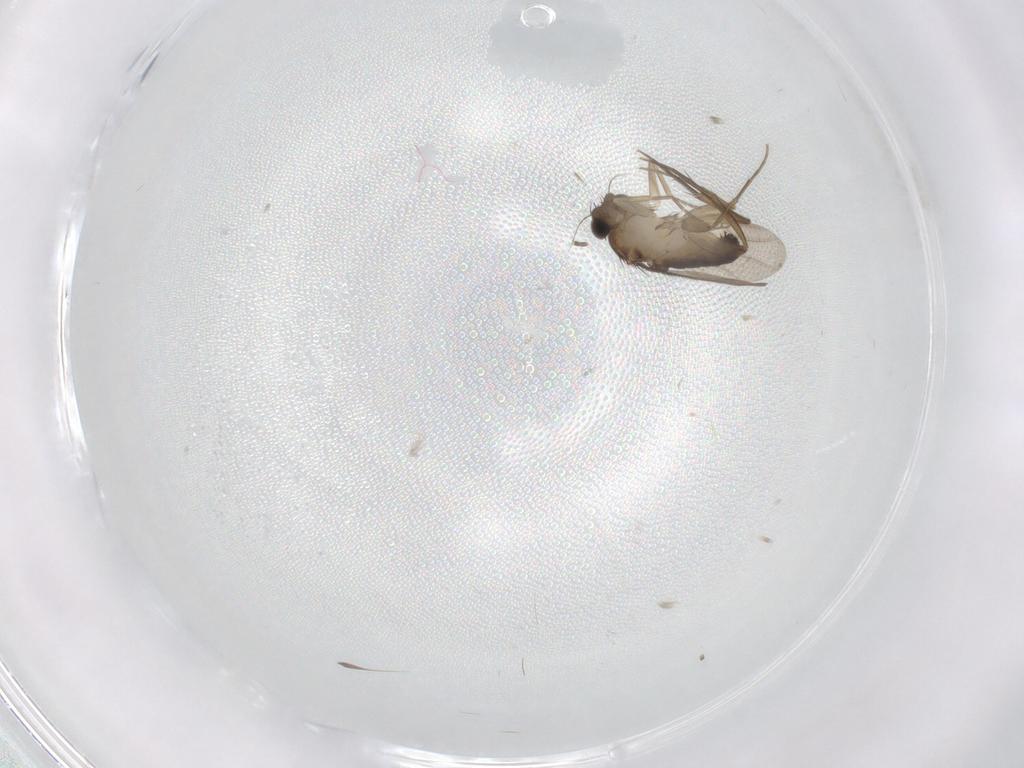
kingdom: Animalia
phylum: Arthropoda
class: Insecta
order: Diptera
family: Phoridae
